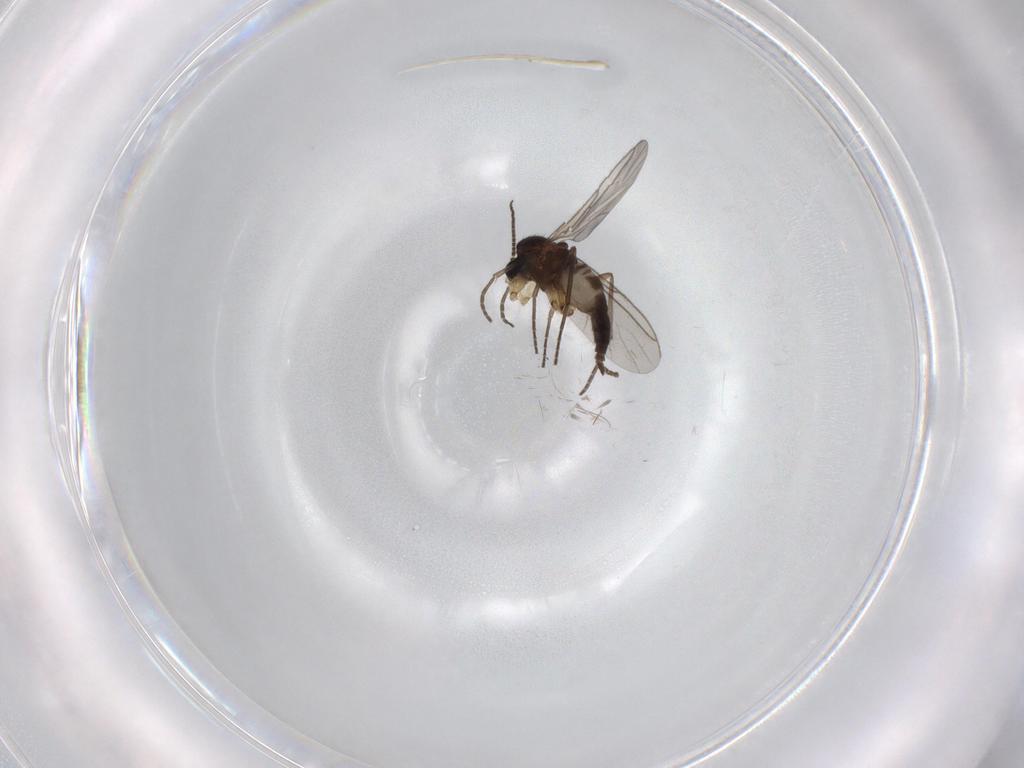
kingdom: Animalia
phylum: Arthropoda
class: Insecta
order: Diptera
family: Sciaridae
